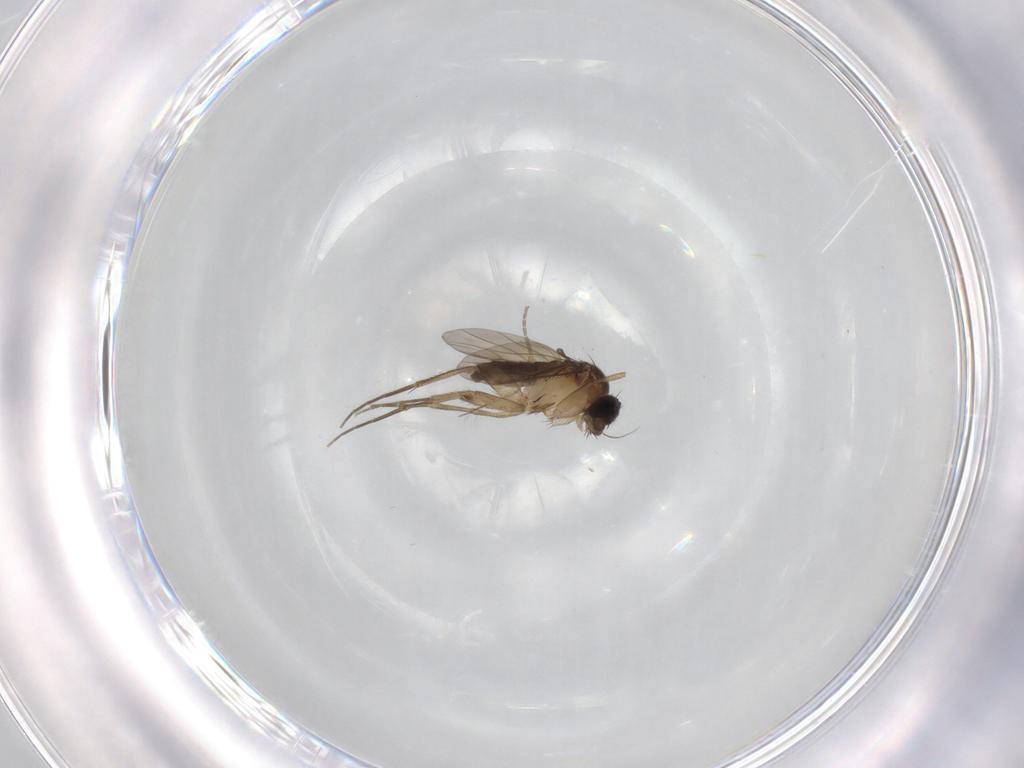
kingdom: Animalia
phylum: Arthropoda
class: Insecta
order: Diptera
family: Phoridae
